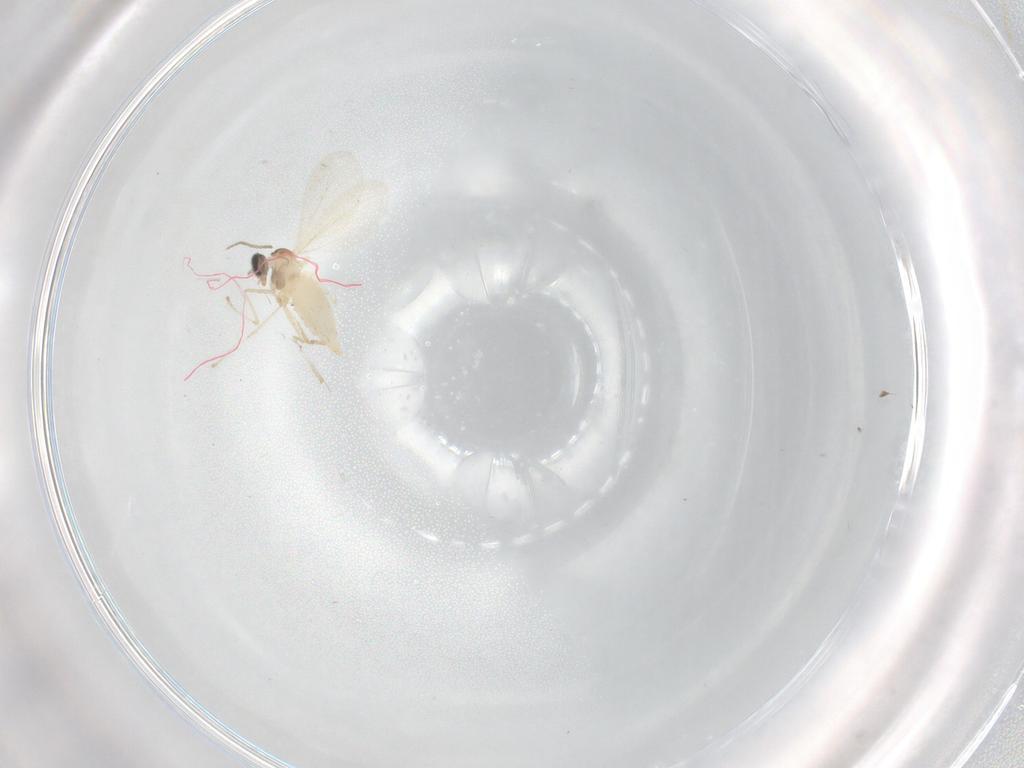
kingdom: Animalia
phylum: Arthropoda
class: Insecta
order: Diptera
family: Cecidomyiidae
